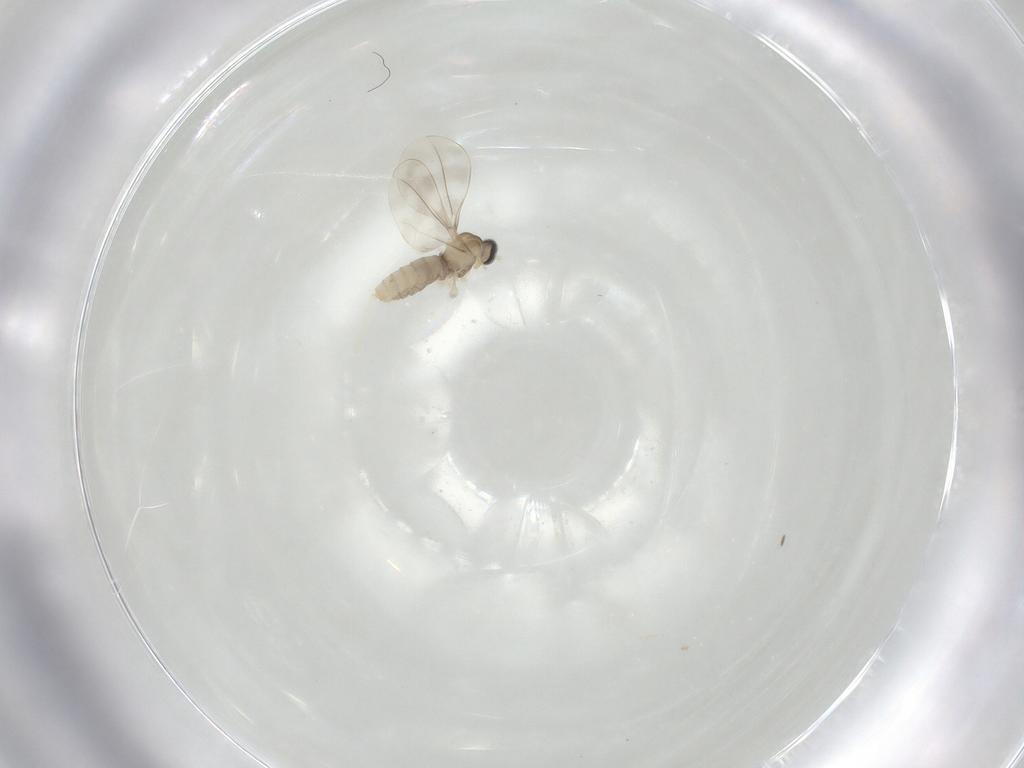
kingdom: Animalia
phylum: Arthropoda
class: Insecta
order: Diptera
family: Cecidomyiidae
